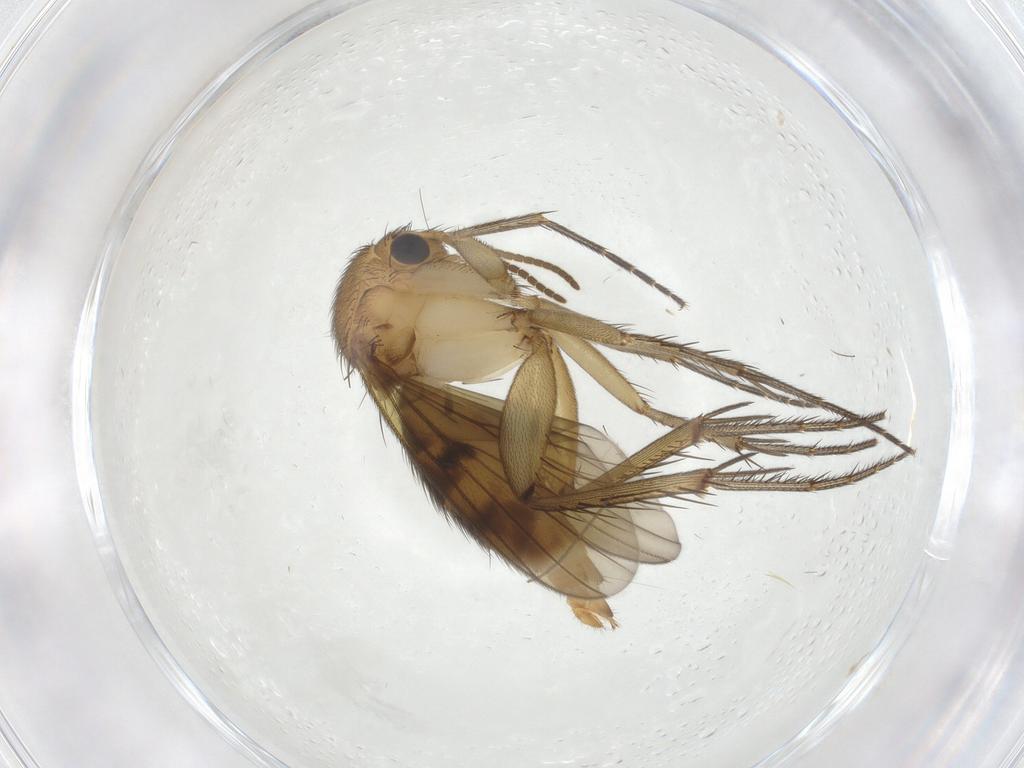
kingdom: Animalia
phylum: Arthropoda
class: Insecta
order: Diptera
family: Mycetophilidae
